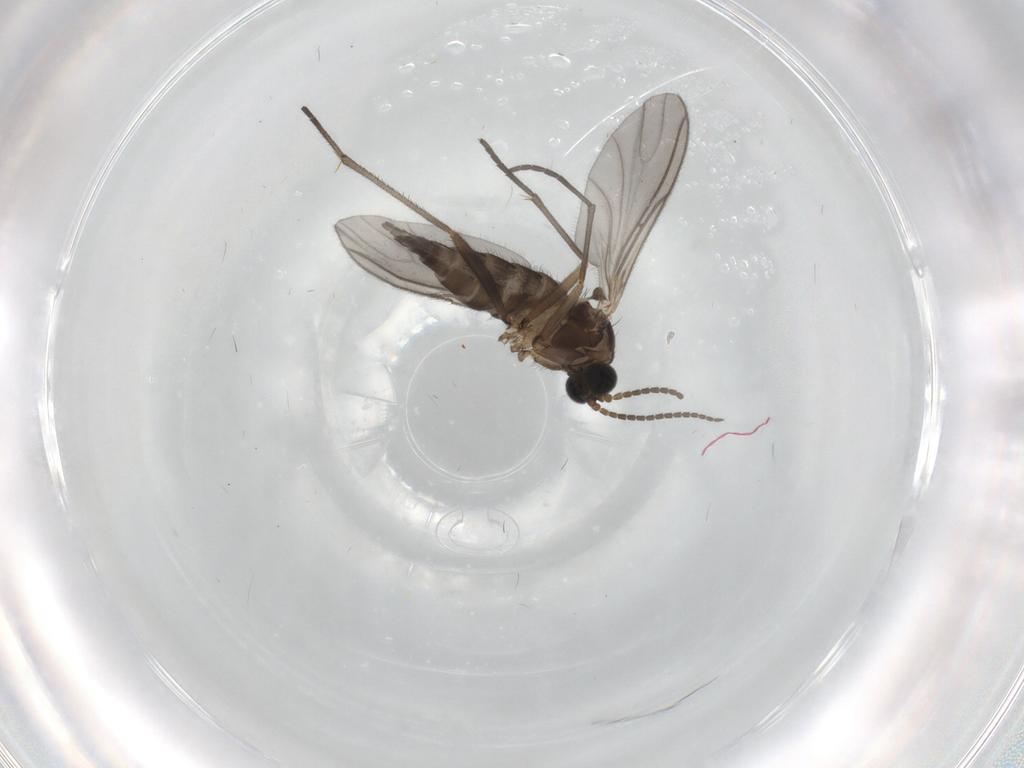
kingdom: Animalia
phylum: Arthropoda
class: Insecta
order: Diptera
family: Sciaridae
